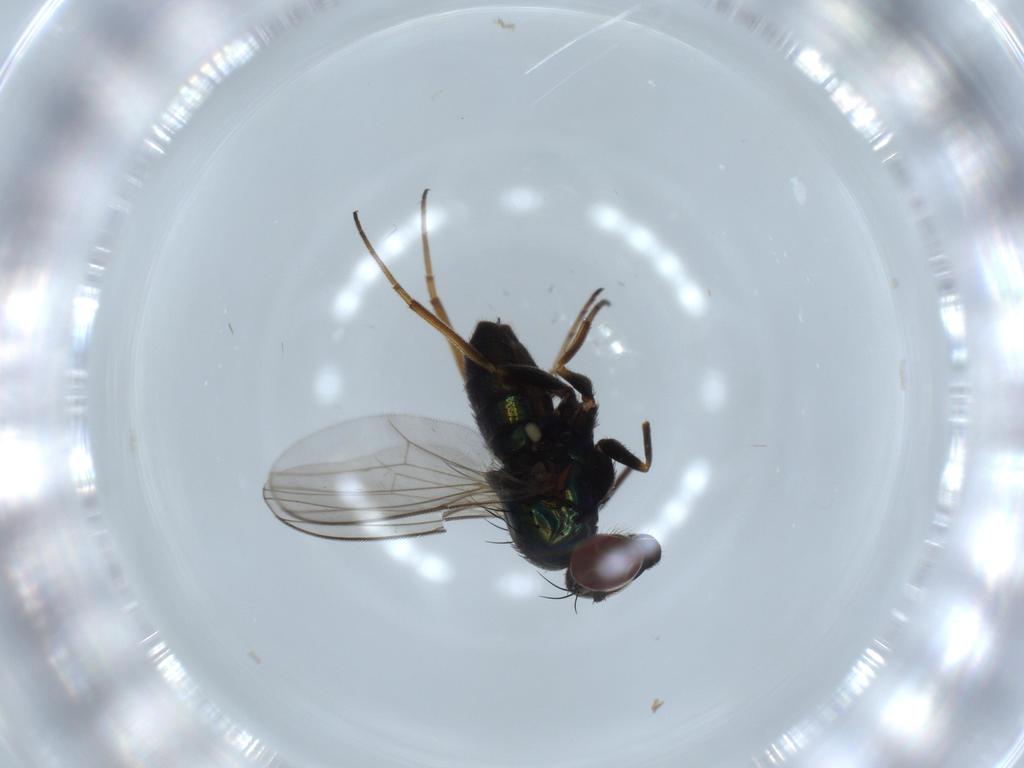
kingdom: Animalia
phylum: Arthropoda
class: Insecta
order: Diptera
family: Dolichopodidae
